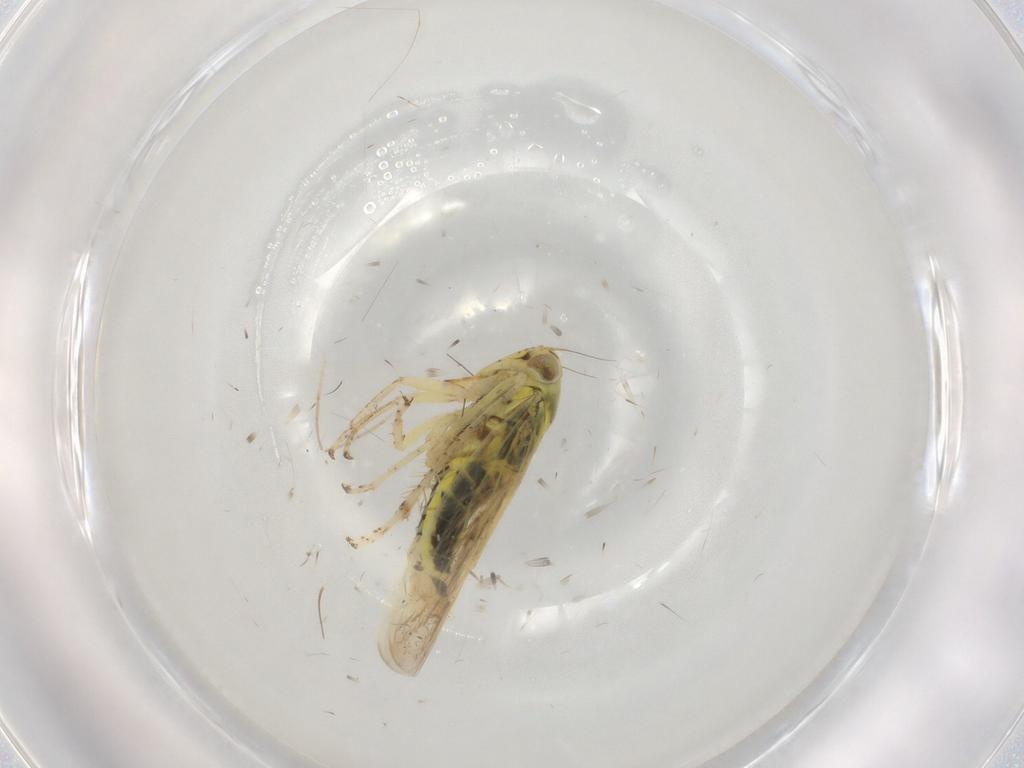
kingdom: Animalia
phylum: Arthropoda
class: Insecta
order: Hemiptera
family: Cicadellidae
